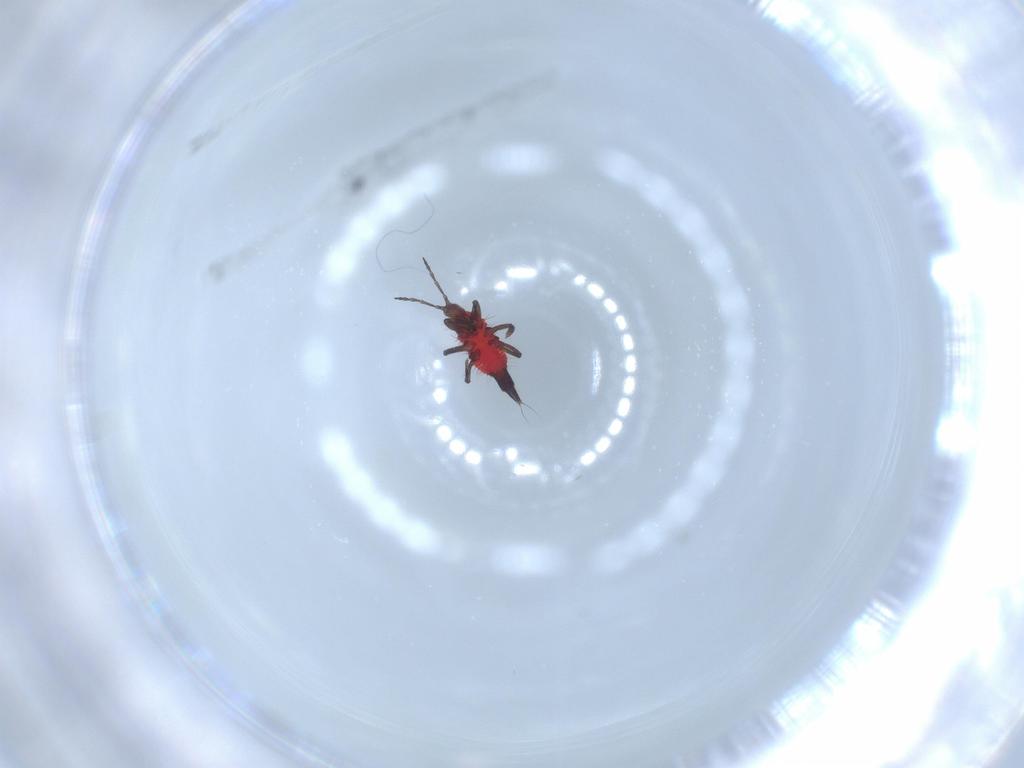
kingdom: Animalia
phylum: Arthropoda
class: Insecta
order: Thysanoptera
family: Phlaeothripidae
